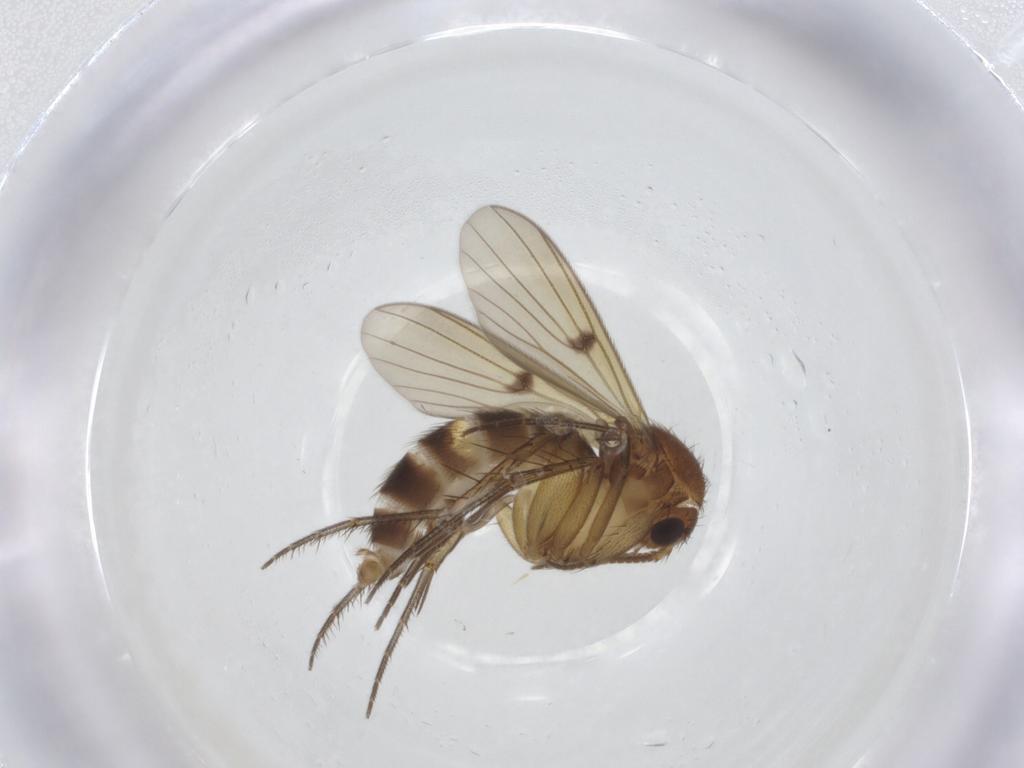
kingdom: Animalia
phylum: Arthropoda
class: Insecta
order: Diptera
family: Mycetophilidae
